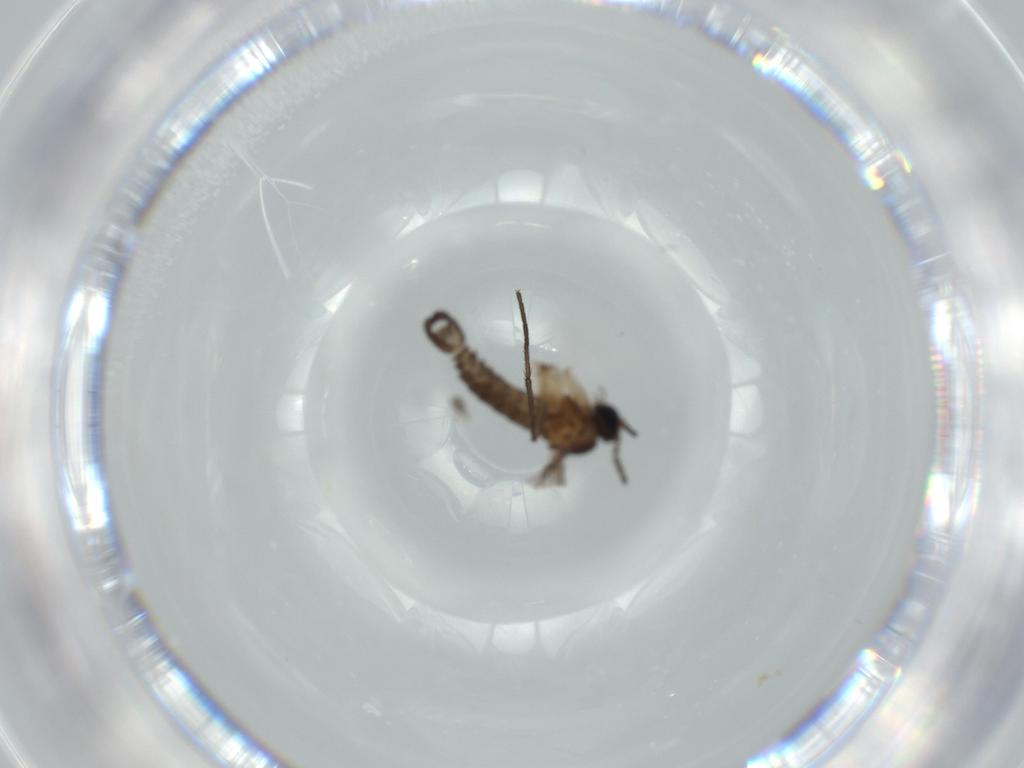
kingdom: Animalia
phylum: Arthropoda
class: Insecta
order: Diptera
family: Sciaridae
